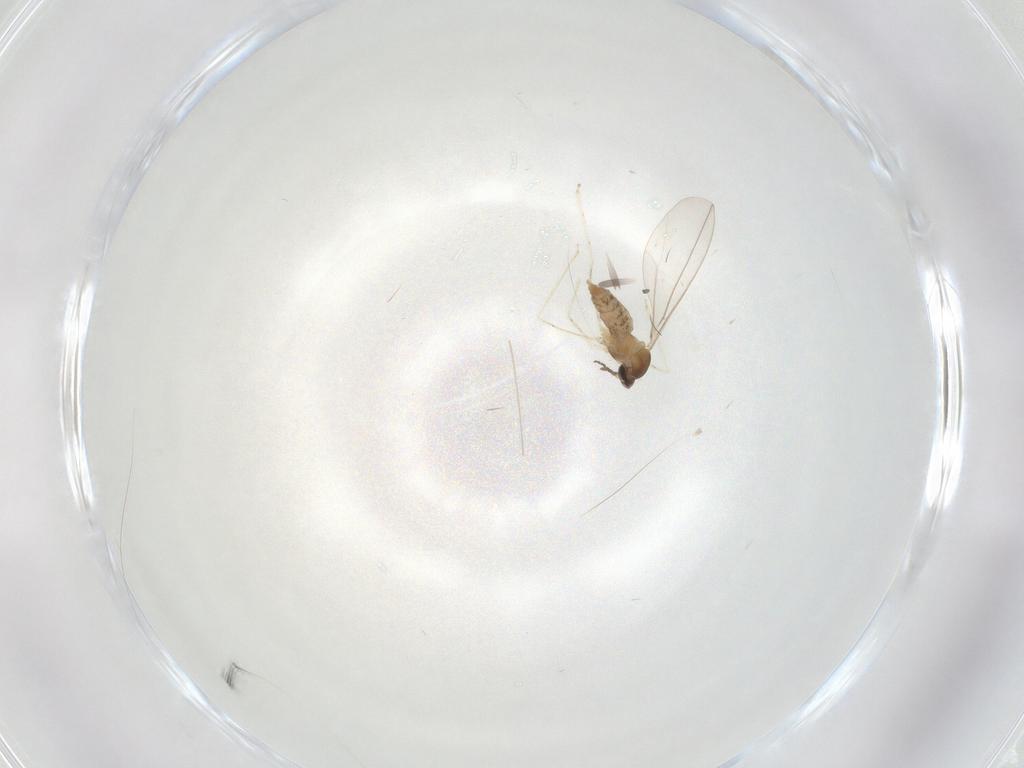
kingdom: Animalia
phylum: Arthropoda
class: Insecta
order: Diptera
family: Cecidomyiidae
